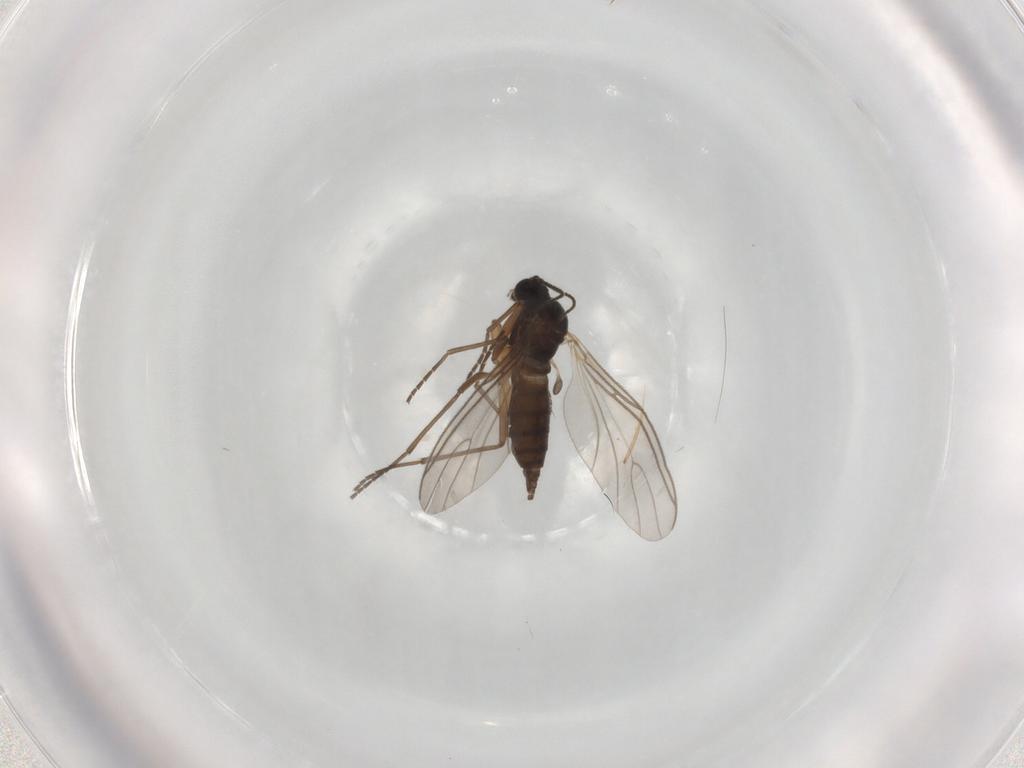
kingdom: Animalia
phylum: Arthropoda
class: Insecta
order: Diptera
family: Sciaridae
